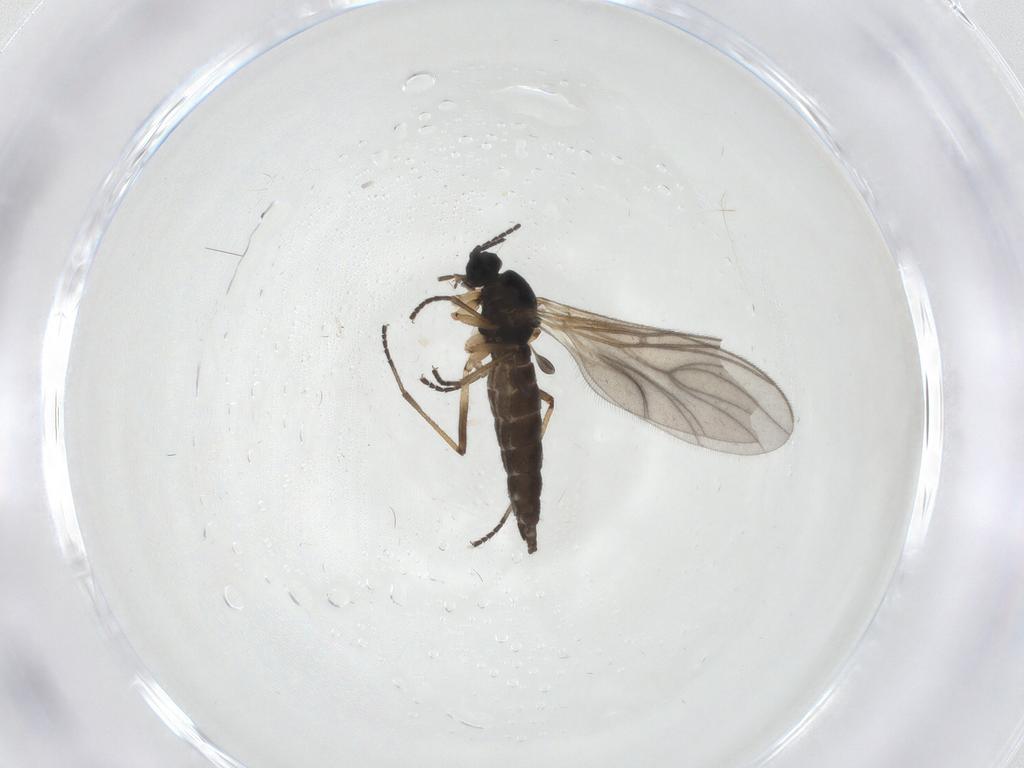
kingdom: Animalia
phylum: Arthropoda
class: Insecta
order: Diptera
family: Sciaridae
